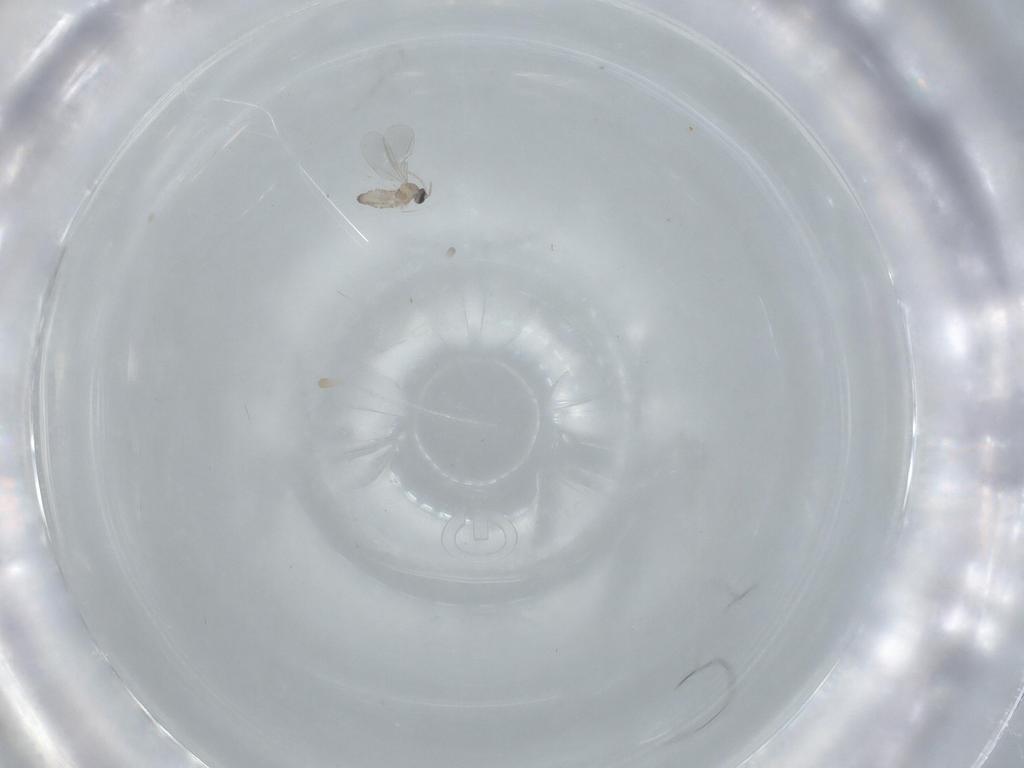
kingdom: Animalia
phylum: Arthropoda
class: Insecta
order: Diptera
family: Cecidomyiidae
